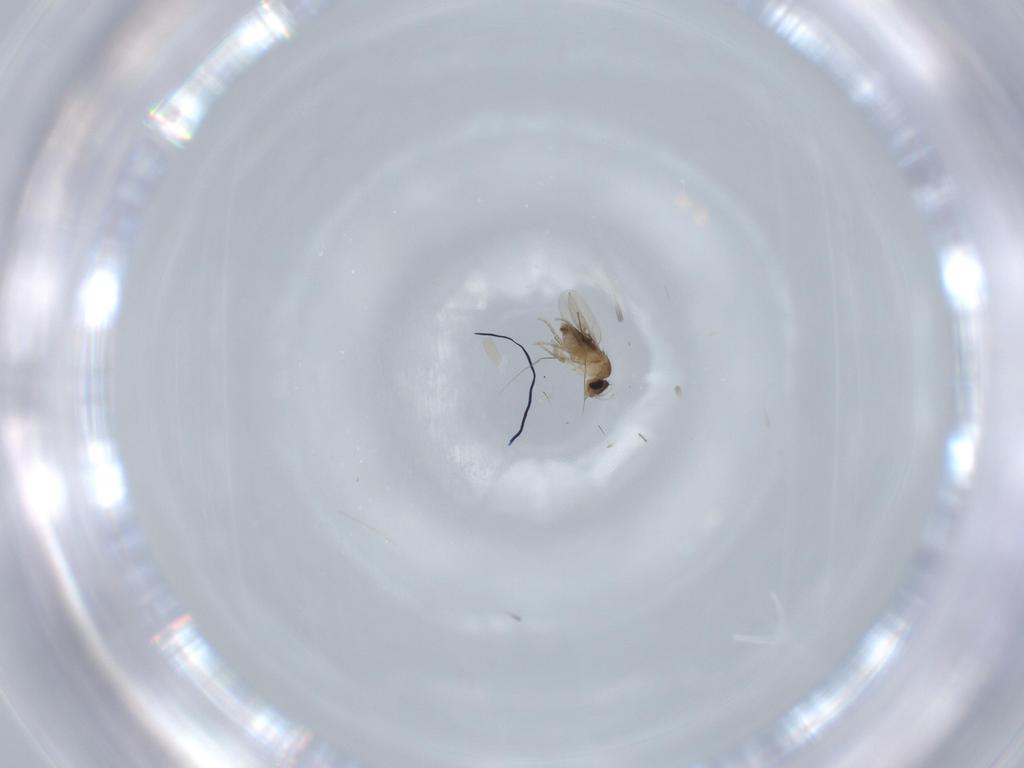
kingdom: Animalia
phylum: Arthropoda
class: Insecta
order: Diptera
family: Phoridae
